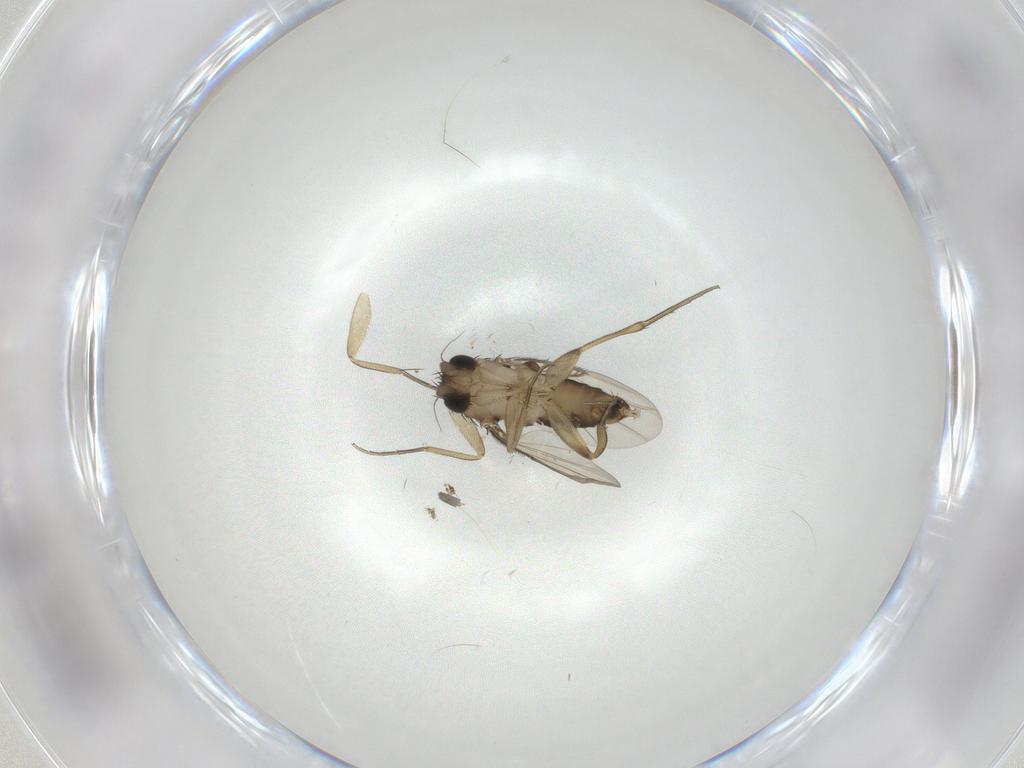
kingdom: Animalia
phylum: Arthropoda
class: Insecta
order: Diptera
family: Phoridae
